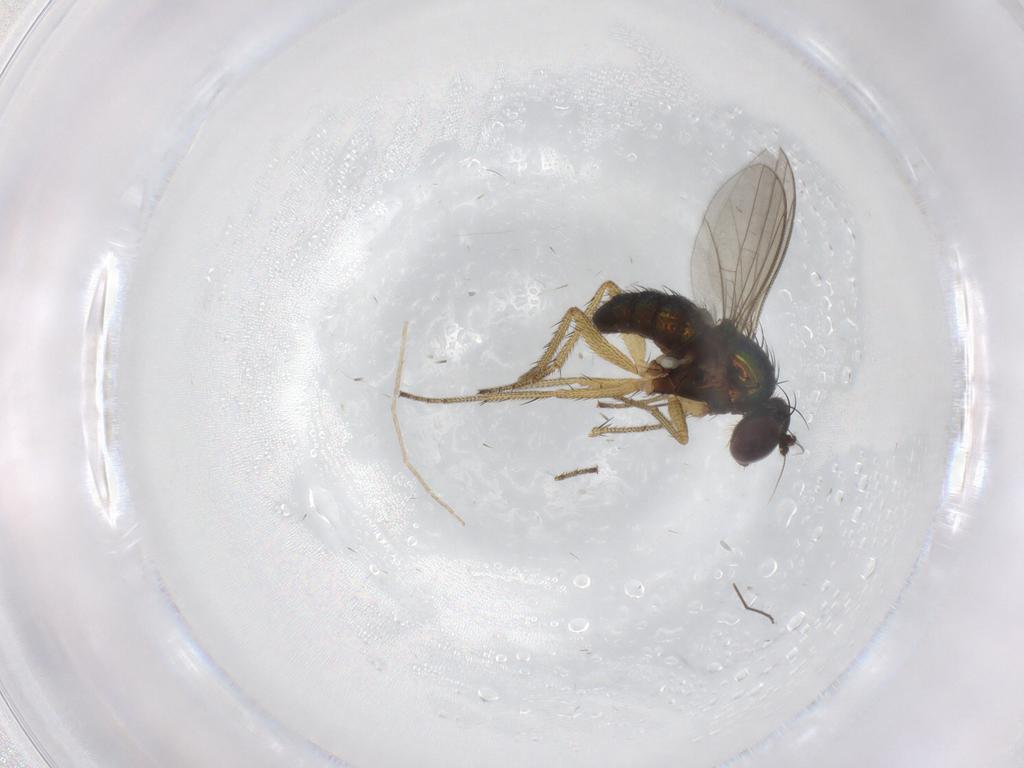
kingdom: Animalia
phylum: Arthropoda
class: Insecta
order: Diptera
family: Dolichopodidae
